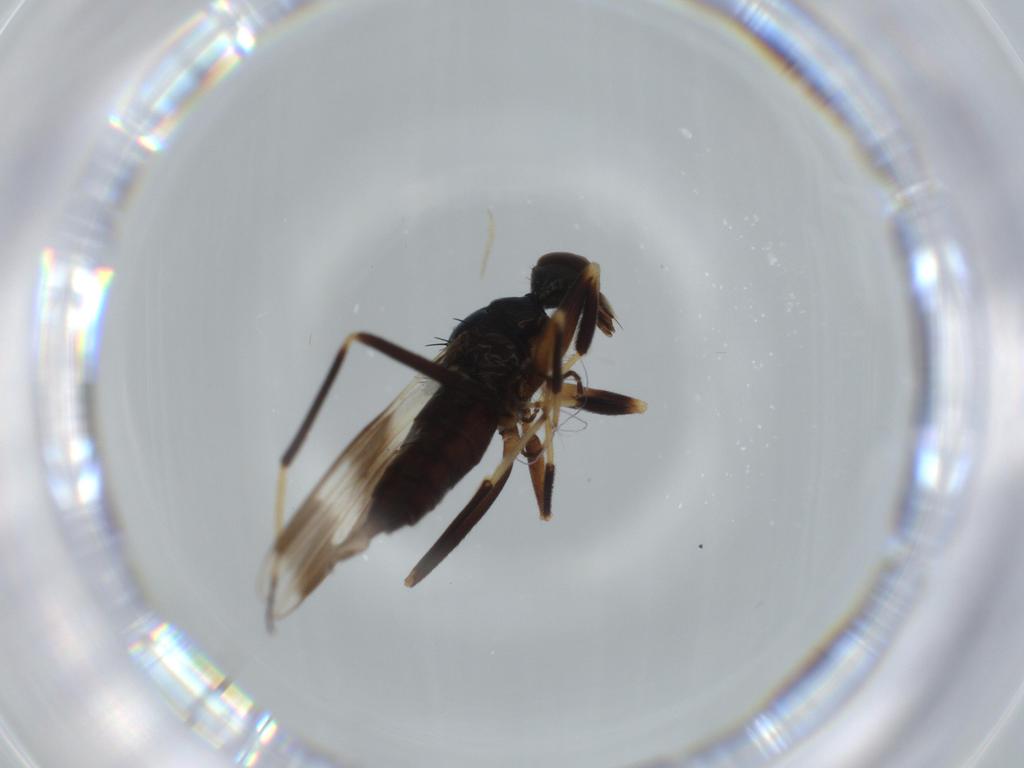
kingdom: Animalia
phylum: Arthropoda
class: Insecta
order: Diptera
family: Hybotidae
